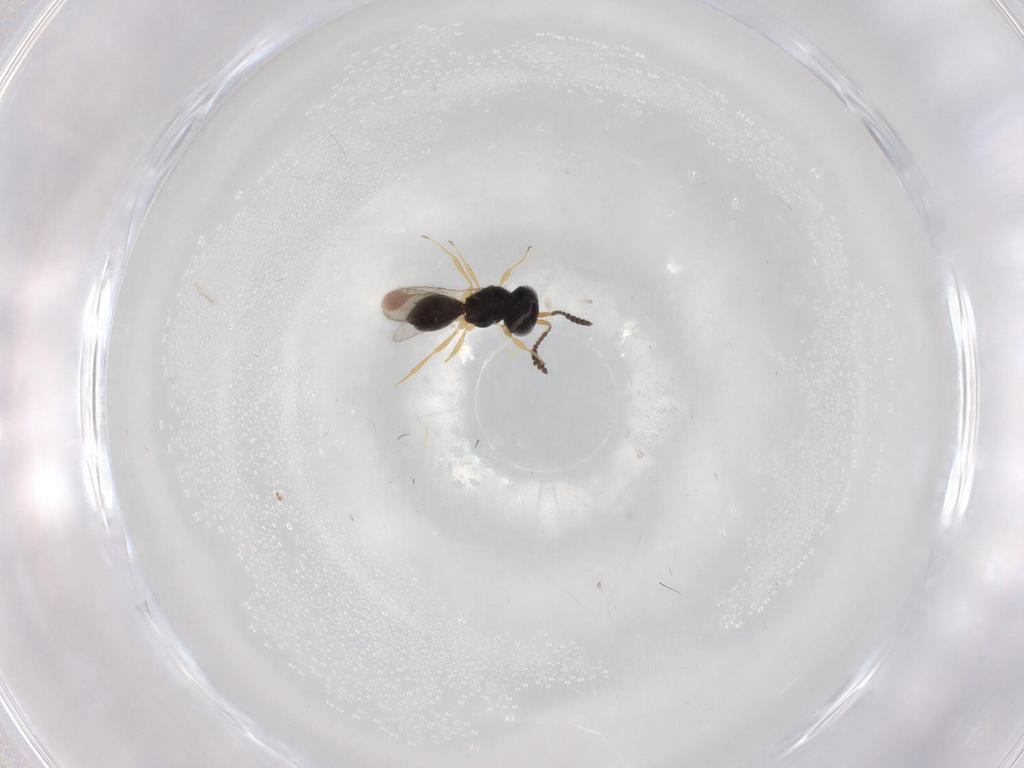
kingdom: Animalia
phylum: Arthropoda
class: Insecta
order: Hymenoptera
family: Scelionidae
